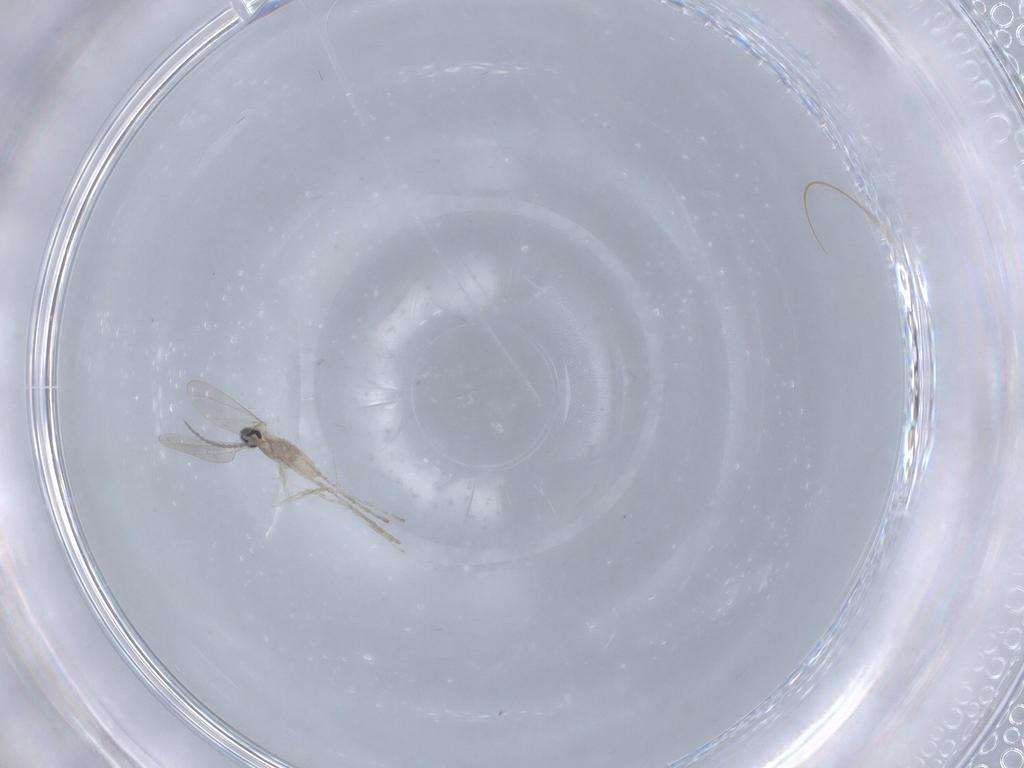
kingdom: Animalia
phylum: Arthropoda
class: Insecta
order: Diptera
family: Cecidomyiidae
